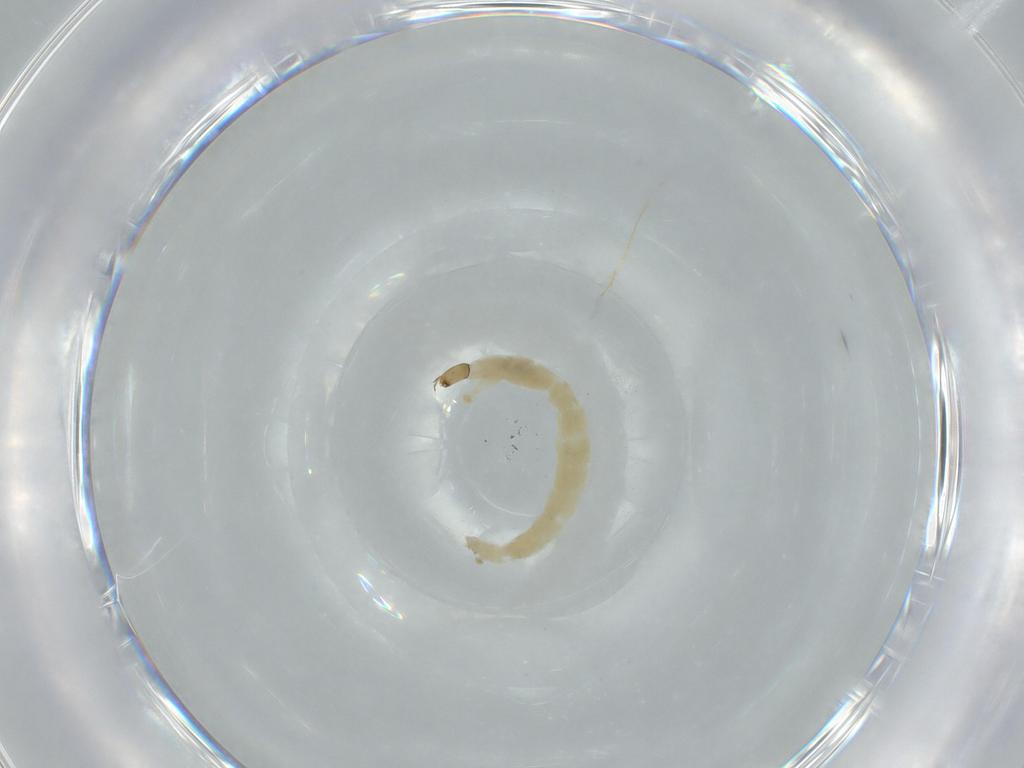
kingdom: Animalia
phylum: Arthropoda
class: Insecta
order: Diptera
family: Chironomidae
